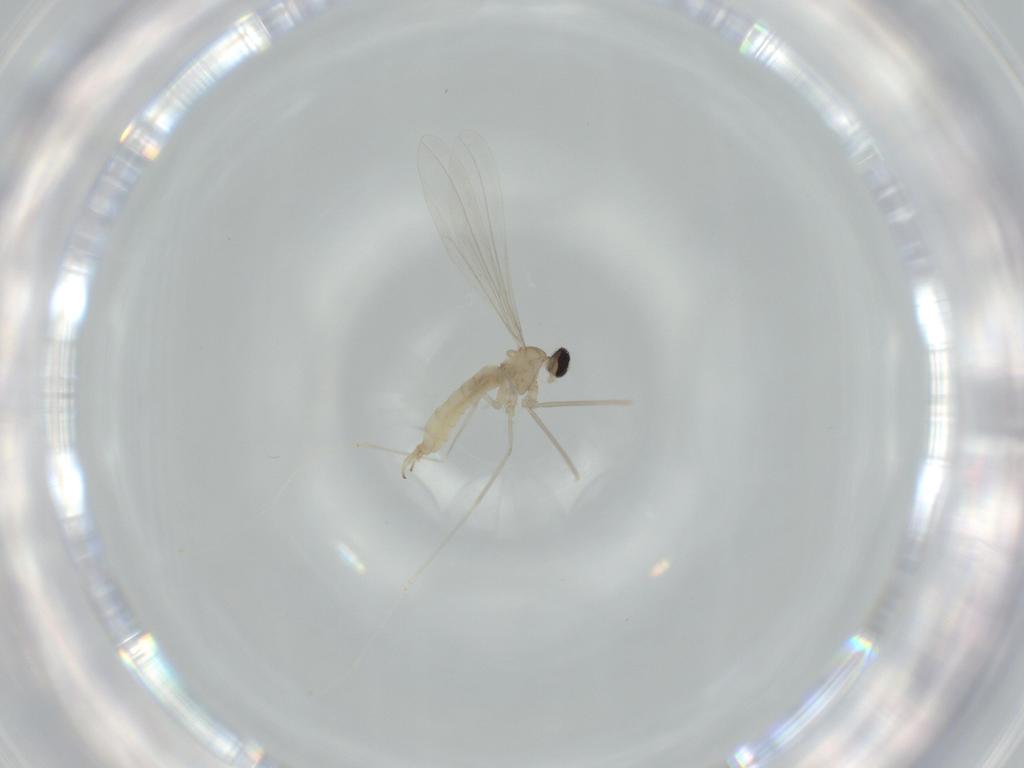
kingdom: Animalia
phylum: Arthropoda
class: Insecta
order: Diptera
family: Cecidomyiidae
